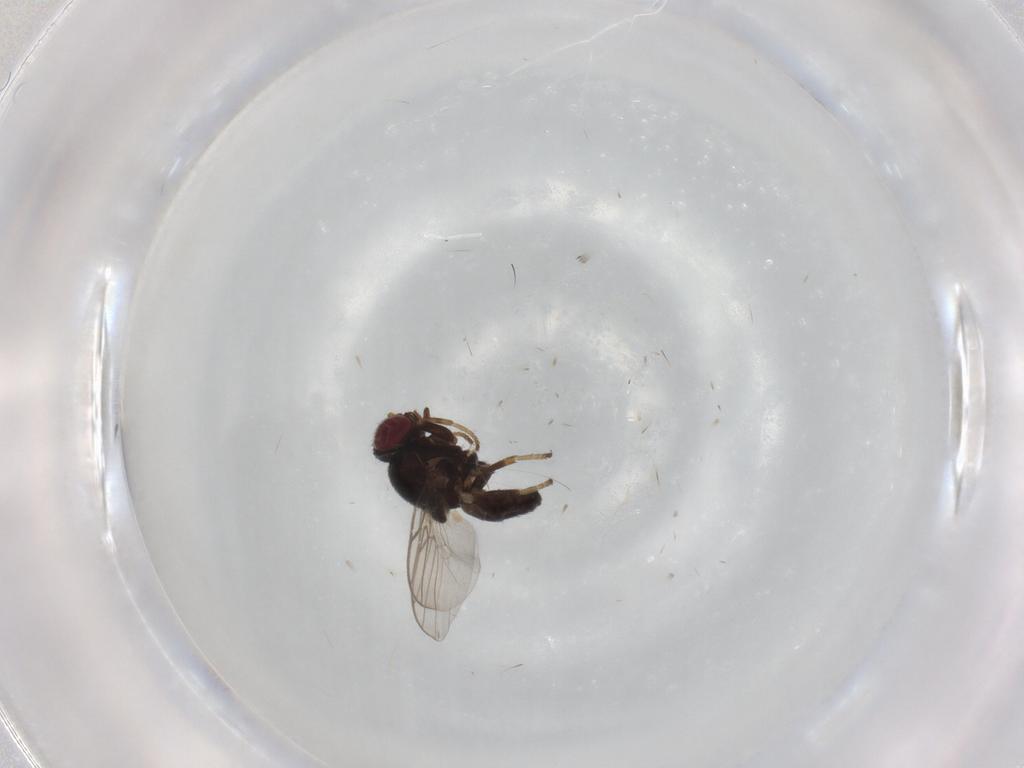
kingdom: Animalia
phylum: Arthropoda
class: Insecta
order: Diptera
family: Chloropidae
